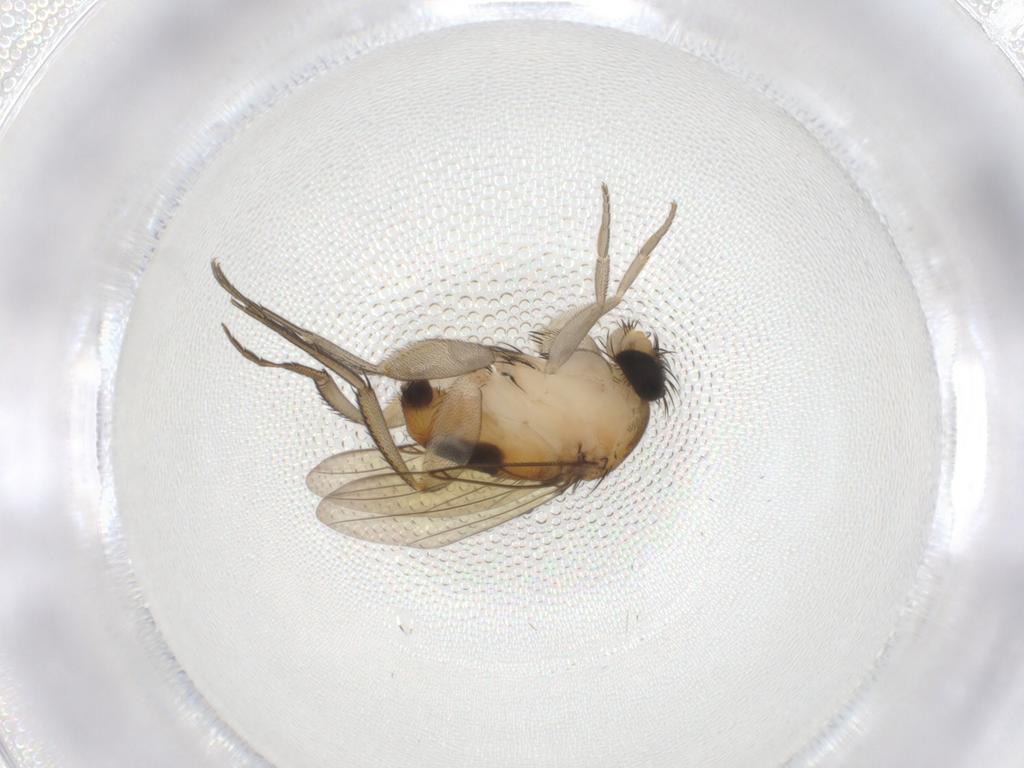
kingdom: Animalia
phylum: Arthropoda
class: Insecta
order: Diptera
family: Phoridae
